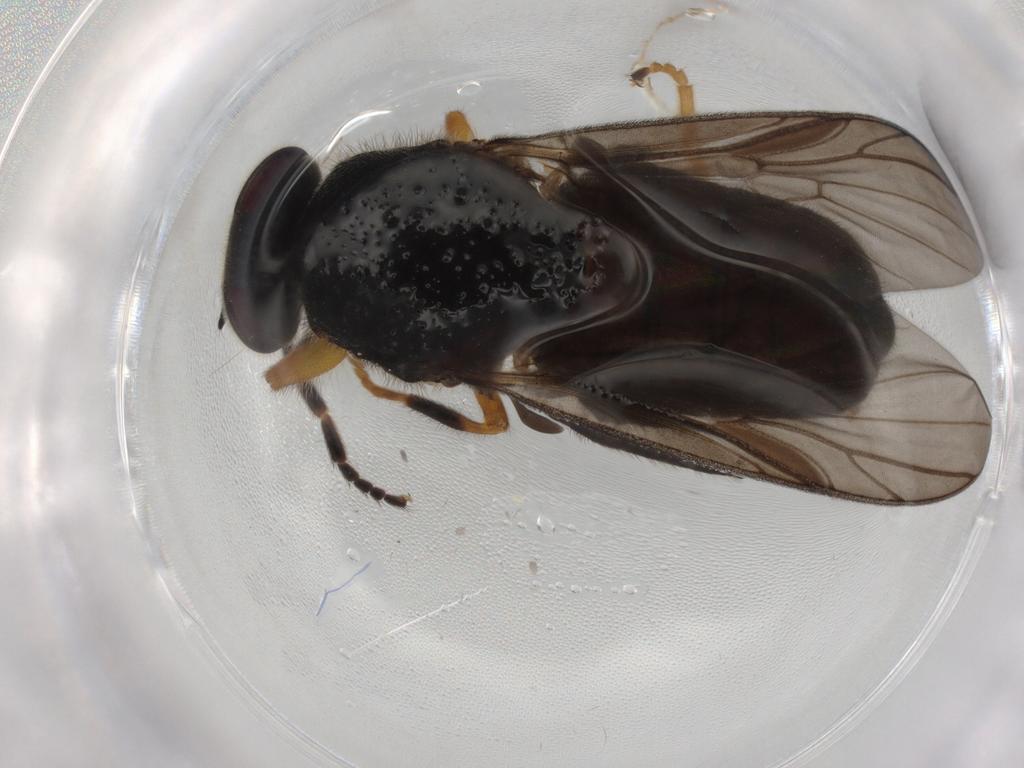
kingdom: Animalia
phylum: Arthropoda
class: Insecta
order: Diptera
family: Stratiomyidae
